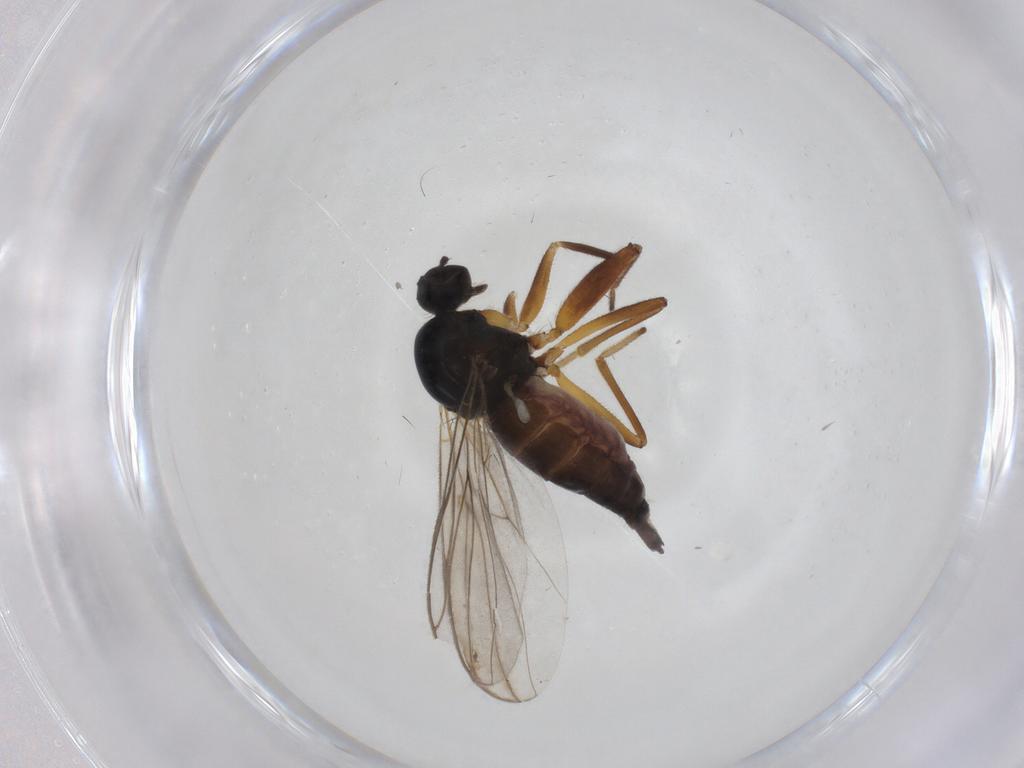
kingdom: Animalia
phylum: Arthropoda
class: Insecta
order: Diptera
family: Hybotidae
